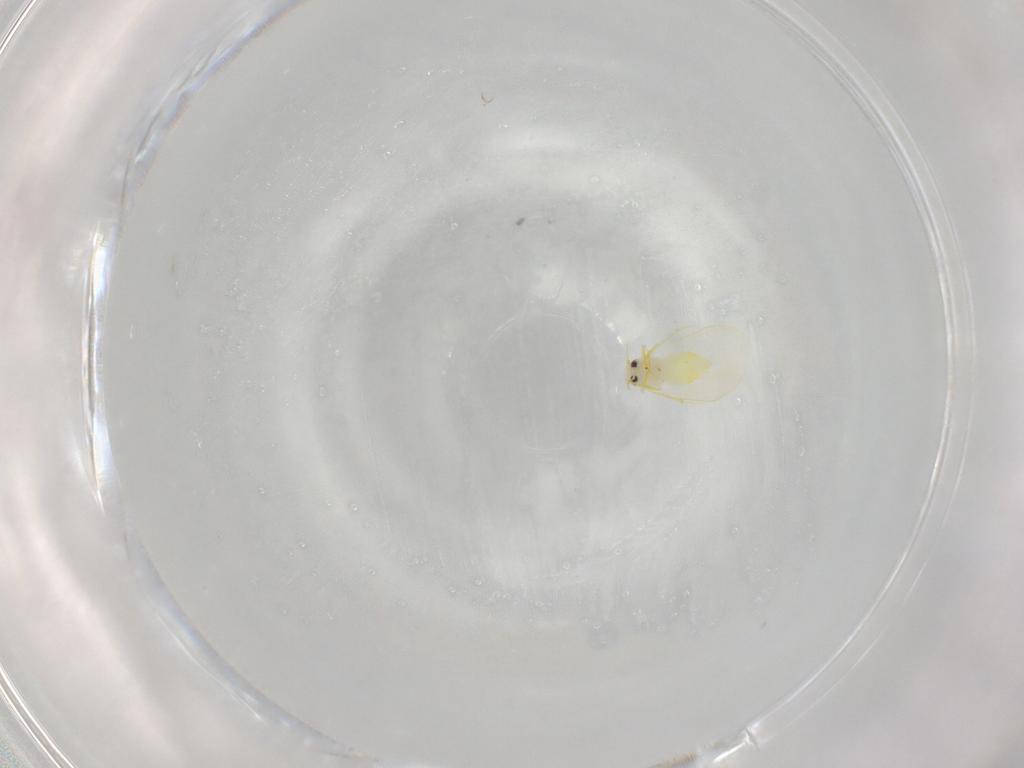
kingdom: Animalia
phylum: Arthropoda
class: Insecta
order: Hemiptera
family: Aleyrodidae
